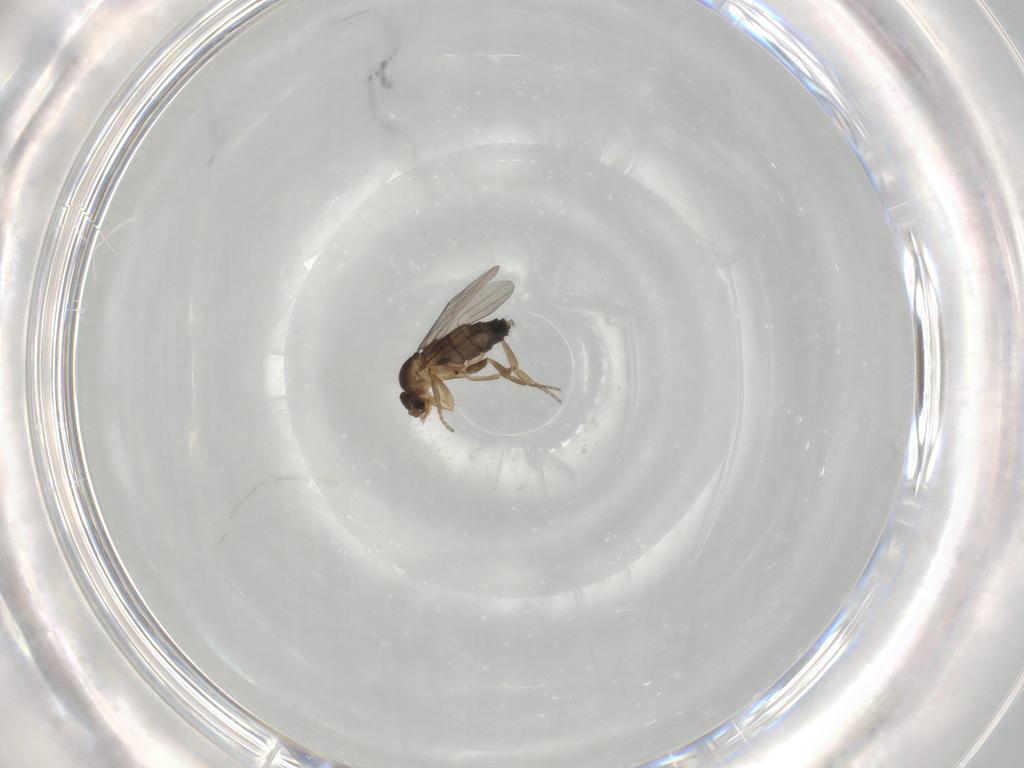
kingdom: Animalia
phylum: Arthropoda
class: Insecta
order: Diptera
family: Phoridae
